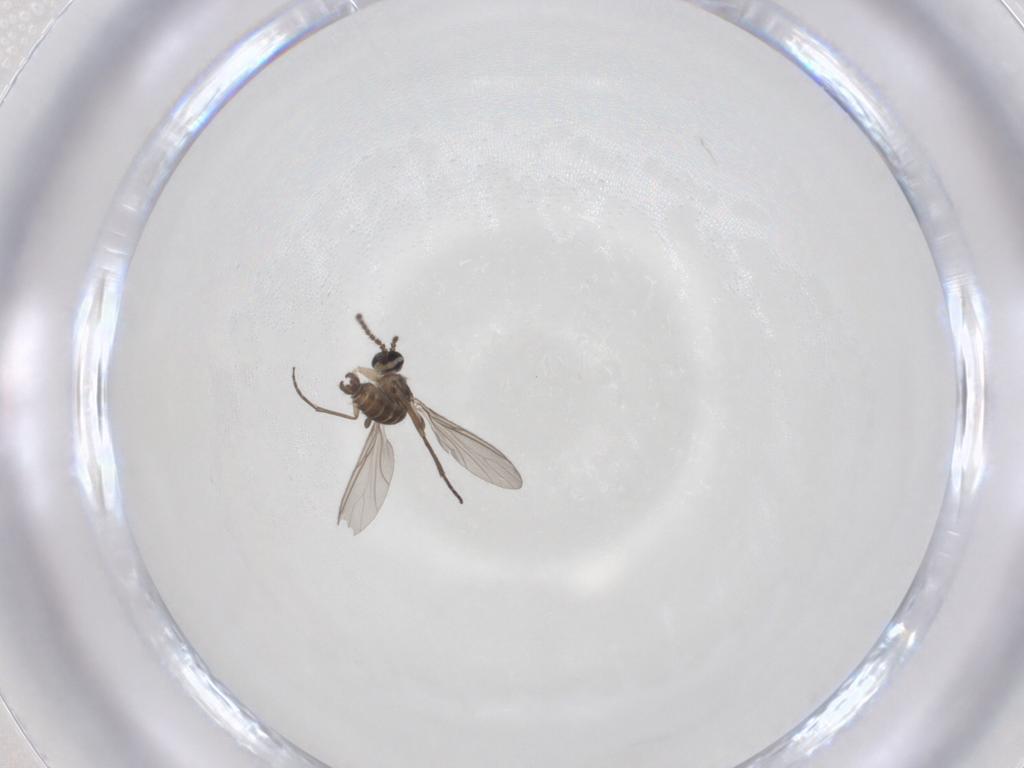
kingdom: Animalia
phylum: Arthropoda
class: Insecta
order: Diptera
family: Sciaridae
